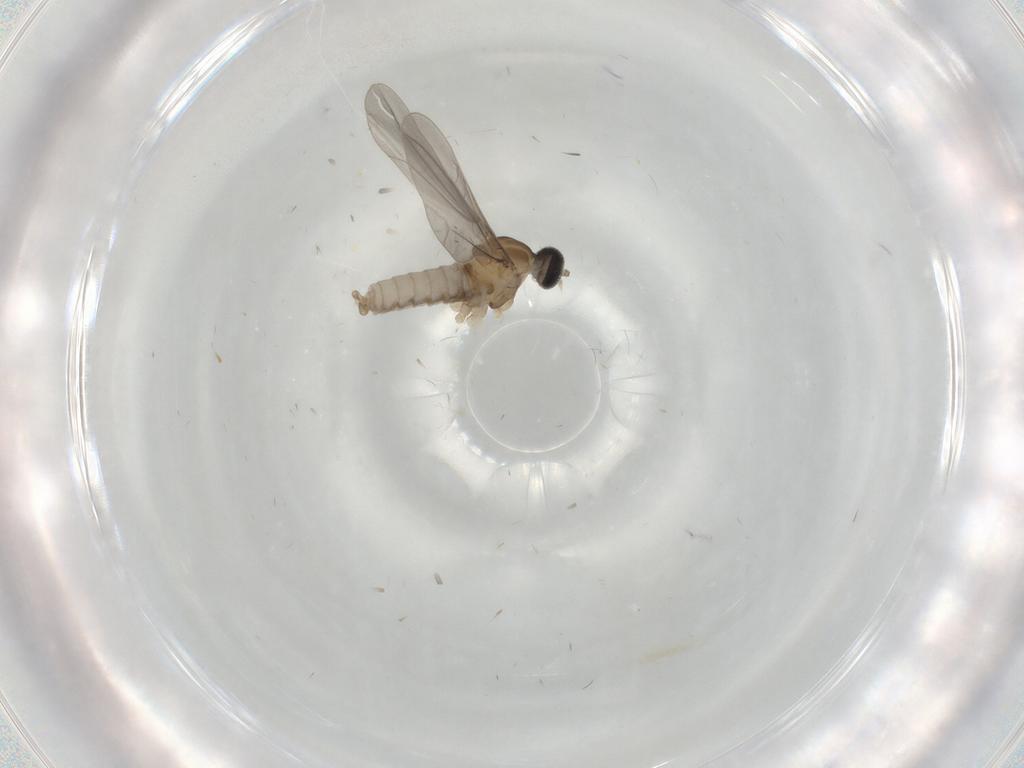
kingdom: Animalia
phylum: Arthropoda
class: Insecta
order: Diptera
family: Cecidomyiidae
